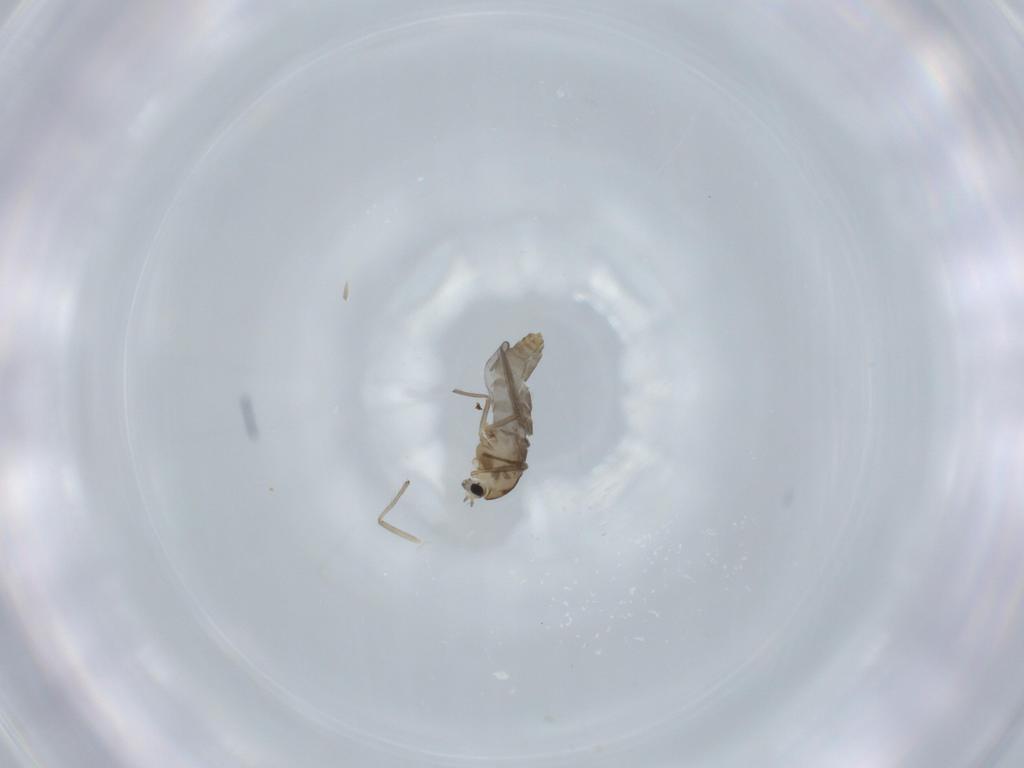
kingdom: Animalia
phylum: Arthropoda
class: Insecta
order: Diptera
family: Chironomidae
